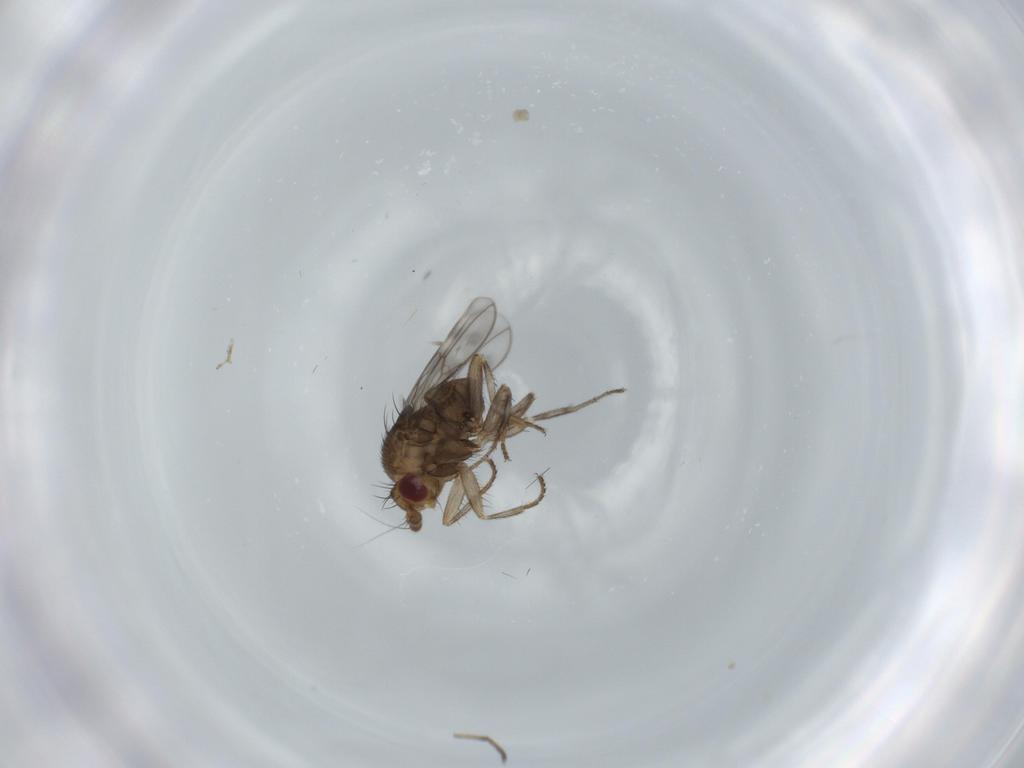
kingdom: Animalia
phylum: Arthropoda
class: Insecta
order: Diptera
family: Sphaeroceridae
